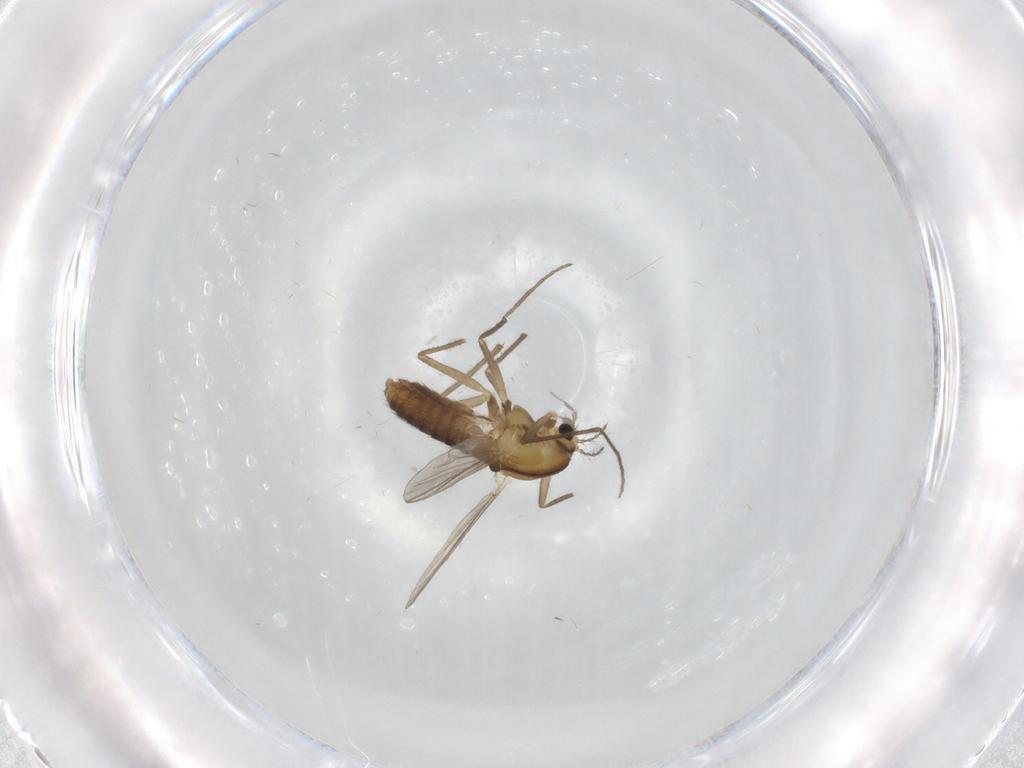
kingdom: Animalia
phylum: Arthropoda
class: Insecta
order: Diptera
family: Chironomidae
